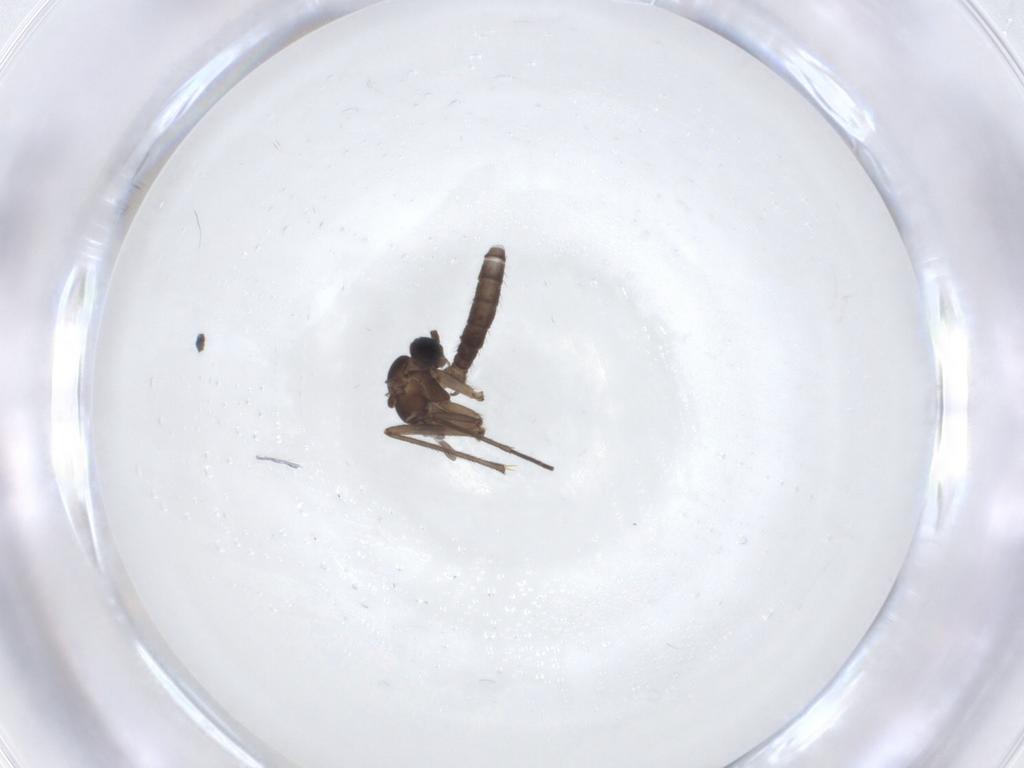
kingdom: Animalia
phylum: Arthropoda
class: Insecta
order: Diptera
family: Sciaridae
